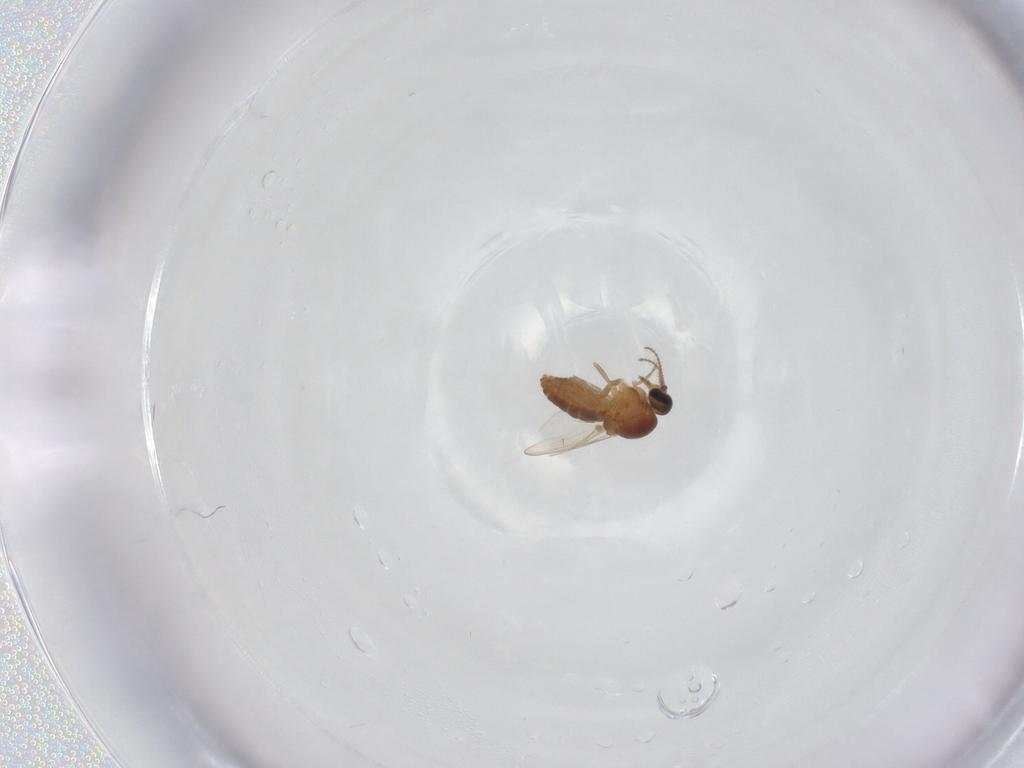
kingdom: Animalia
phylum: Arthropoda
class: Insecta
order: Diptera
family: Ceratopogonidae
